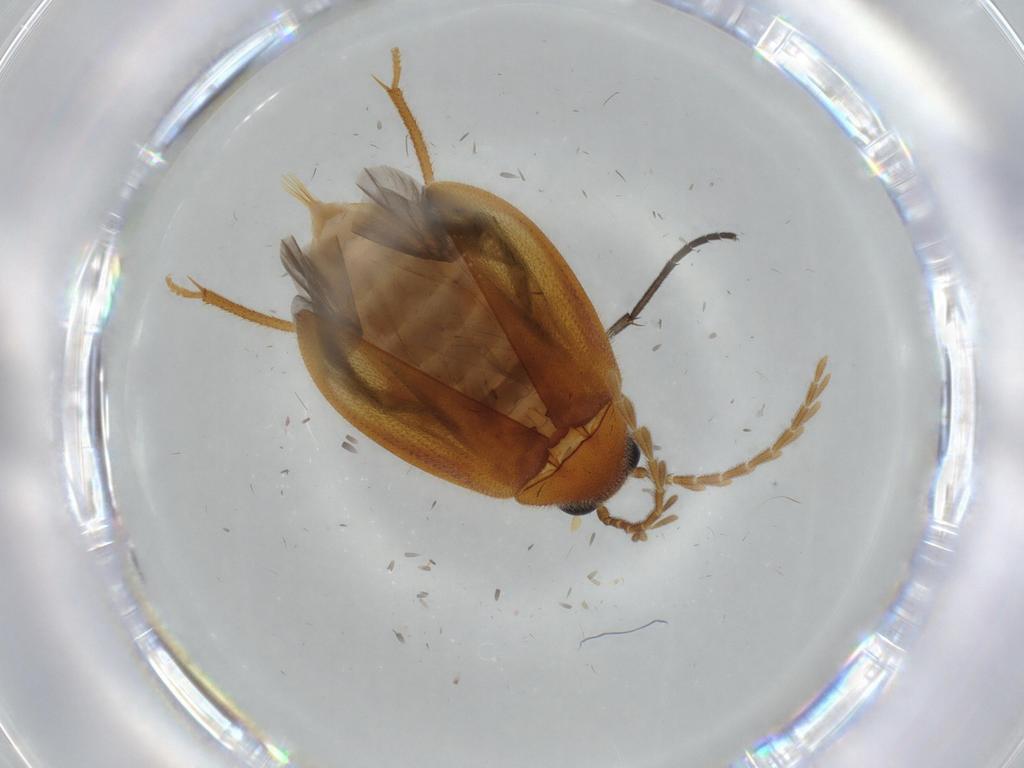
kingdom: Animalia
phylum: Arthropoda
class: Insecta
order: Coleoptera
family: Ptilodactylidae
